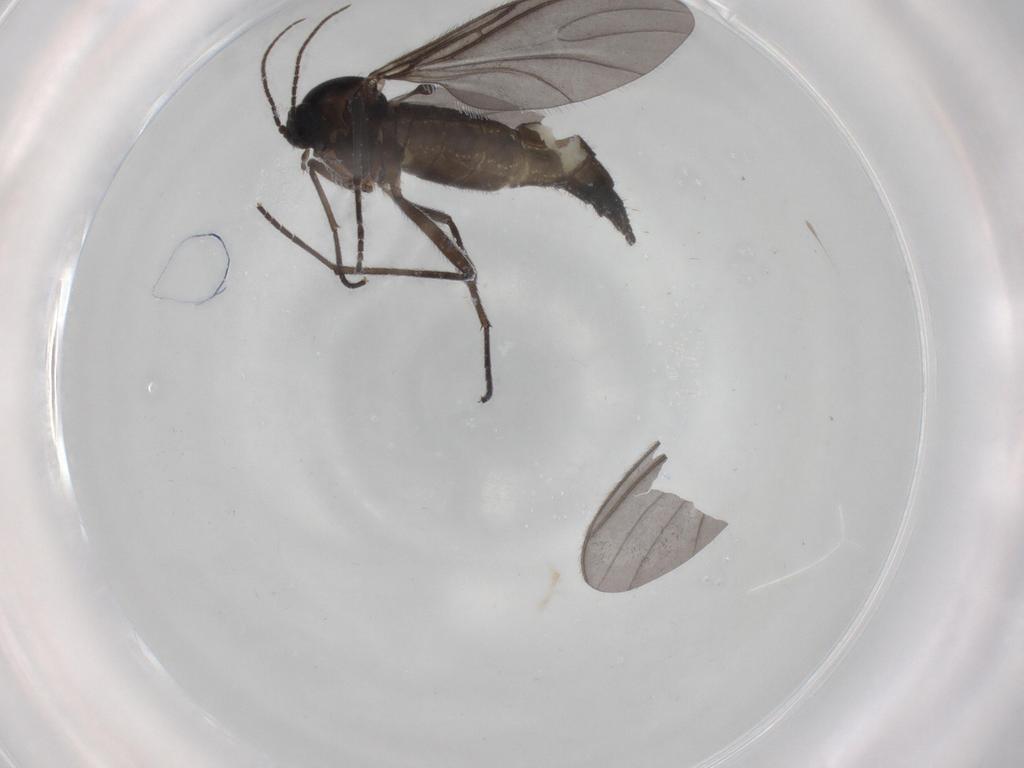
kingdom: Animalia
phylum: Arthropoda
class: Insecta
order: Diptera
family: Sciaridae
